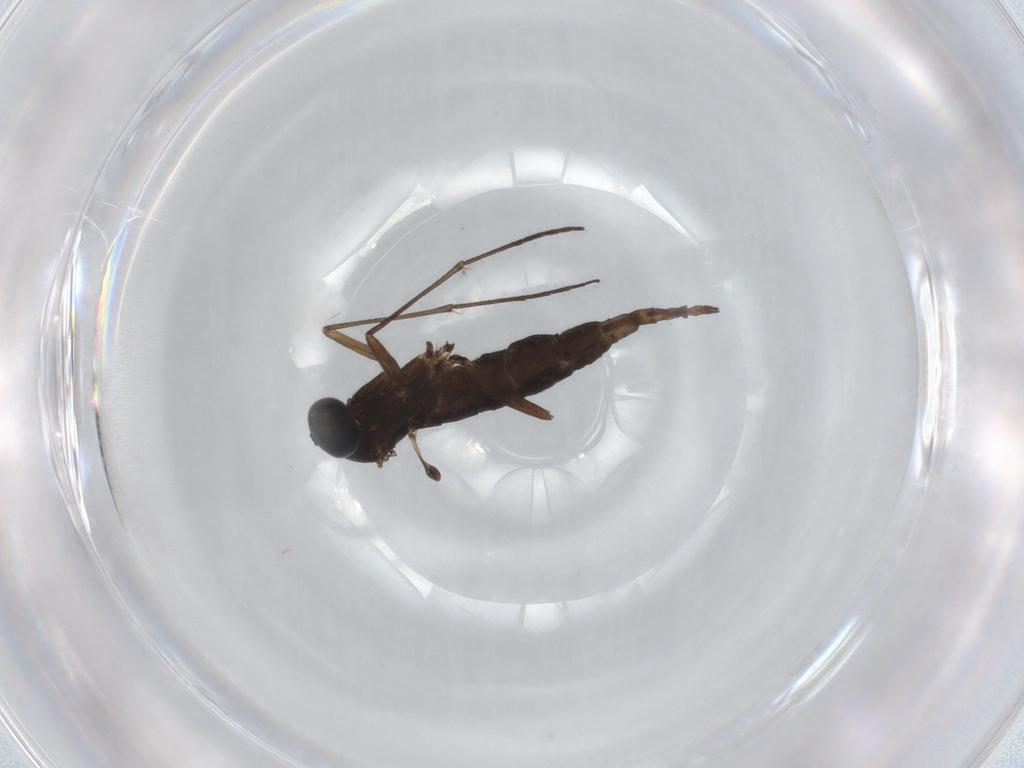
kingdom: Animalia
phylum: Arthropoda
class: Insecta
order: Diptera
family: Sciaridae
